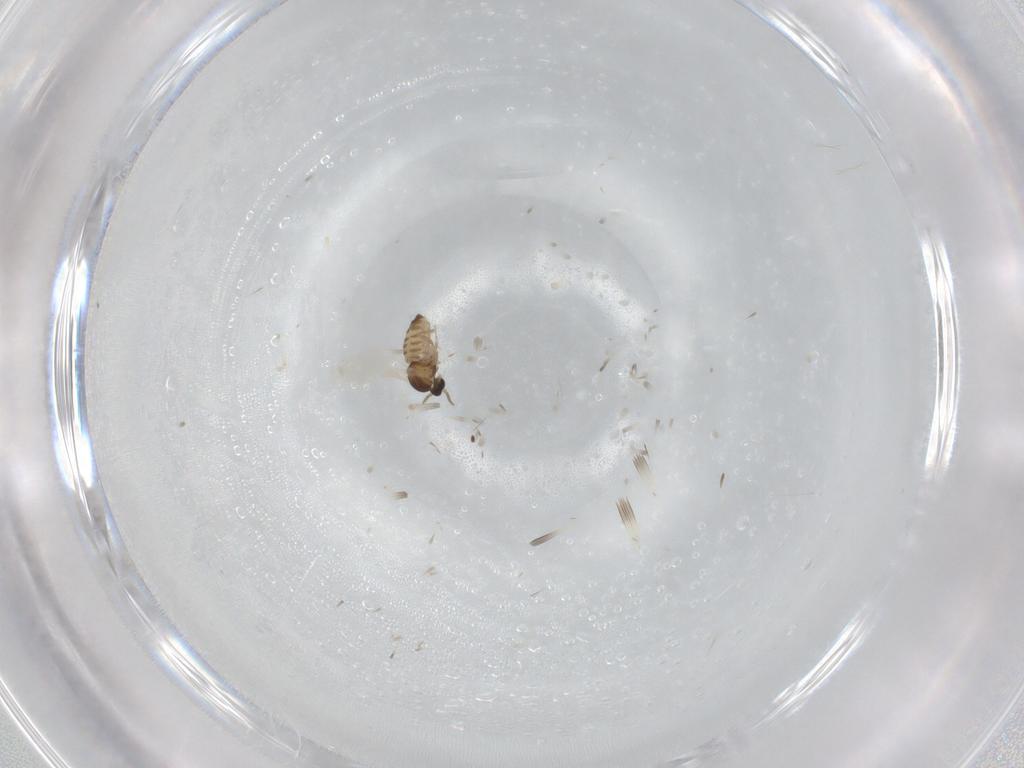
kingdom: Animalia
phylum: Arthropoda
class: Insecta
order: Diptera
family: Cecidomyiidae
